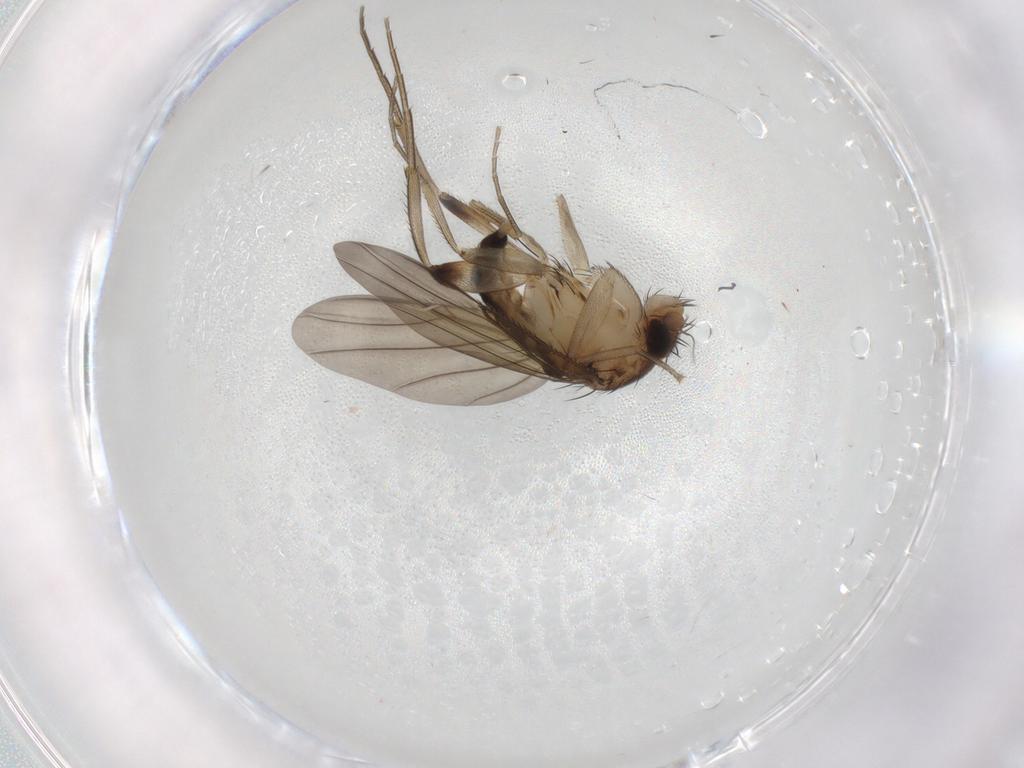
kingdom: Animalia
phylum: Arthropoda
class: Insecta
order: Diptera
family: Phoridae
